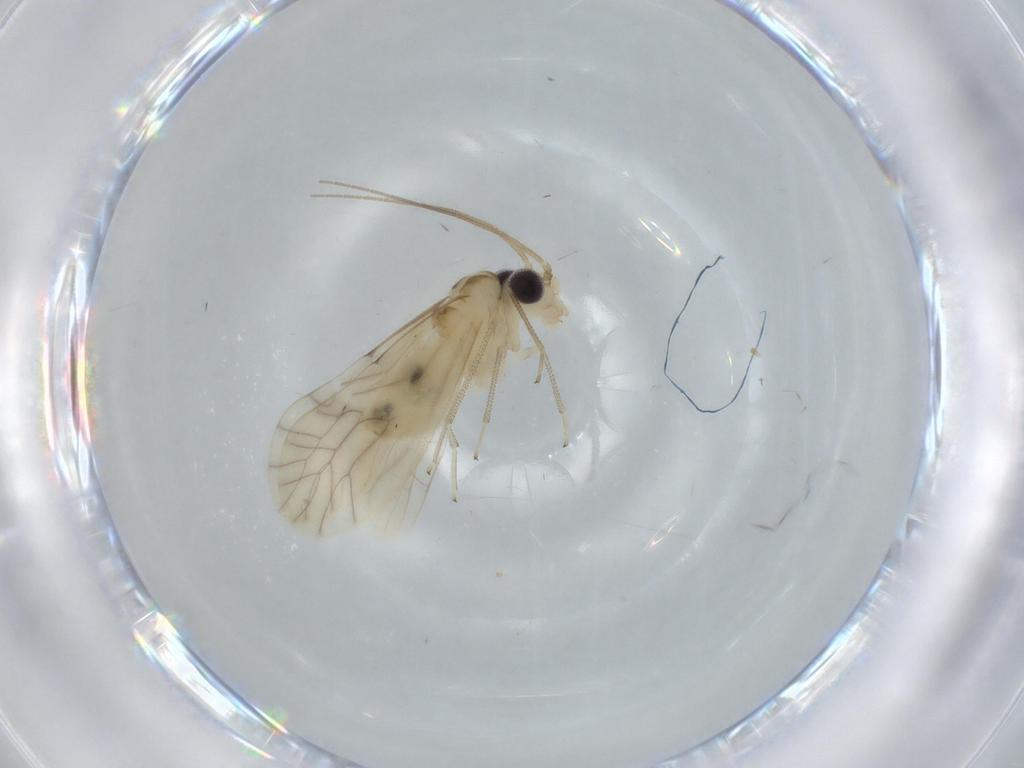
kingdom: Animalia
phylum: Arthropoda
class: Insecta
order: Psocodea
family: Caeciliusidae
